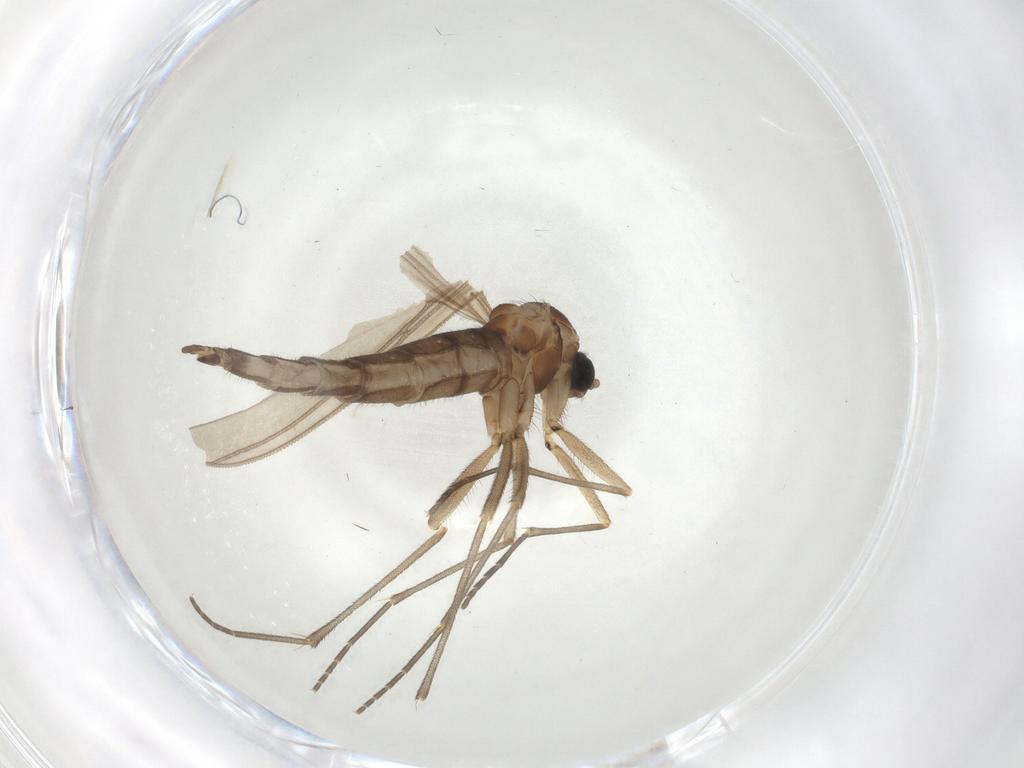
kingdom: Animalia
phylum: Arthropoda
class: Insecta
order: Diptera
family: Sciaridae
